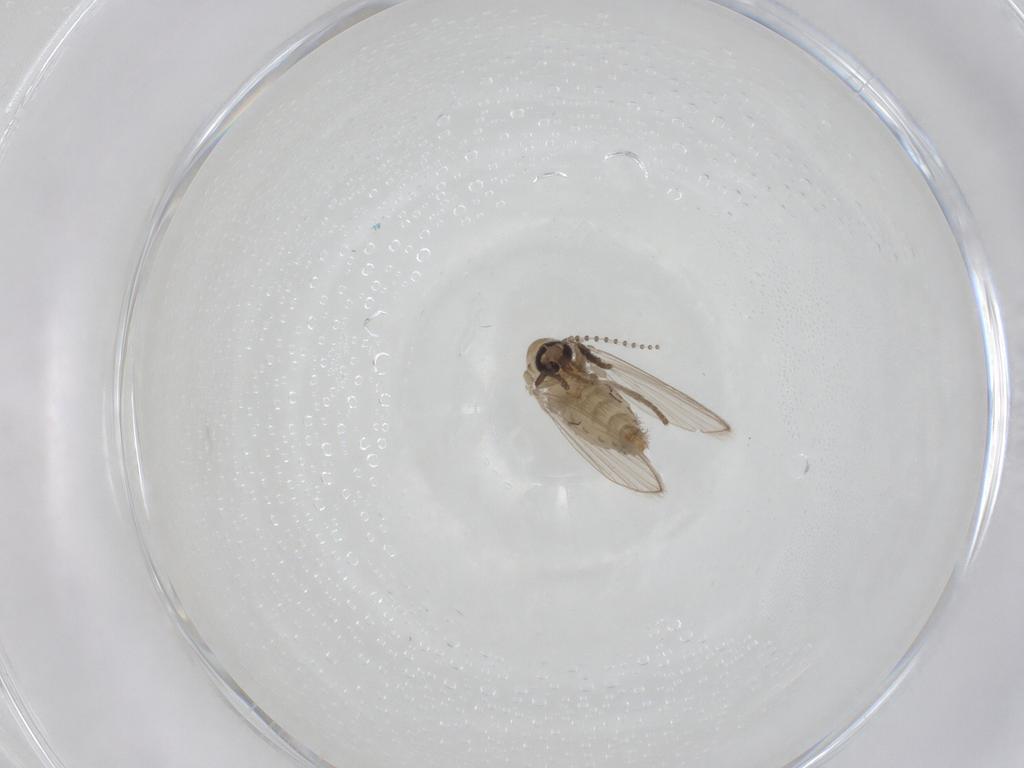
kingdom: Animalia
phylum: Arthropoda
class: Insecta
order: Diptera
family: Psychodidae
